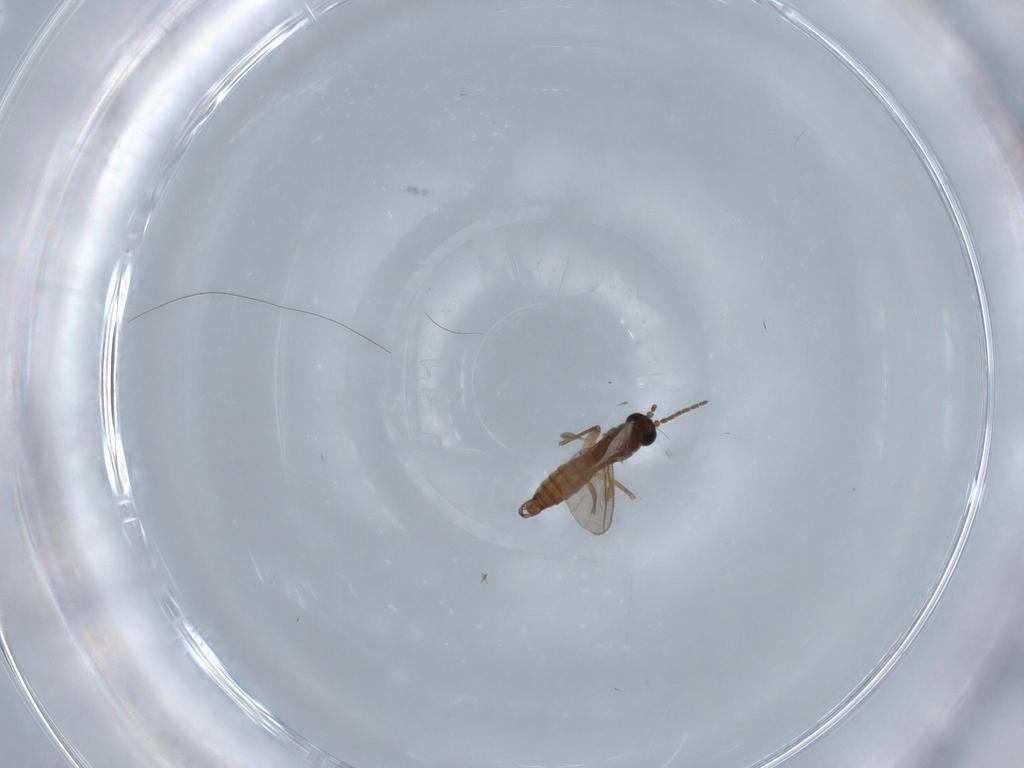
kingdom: Animalia
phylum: Arthropoda
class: Insecta
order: Diptera
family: Sciaridae
